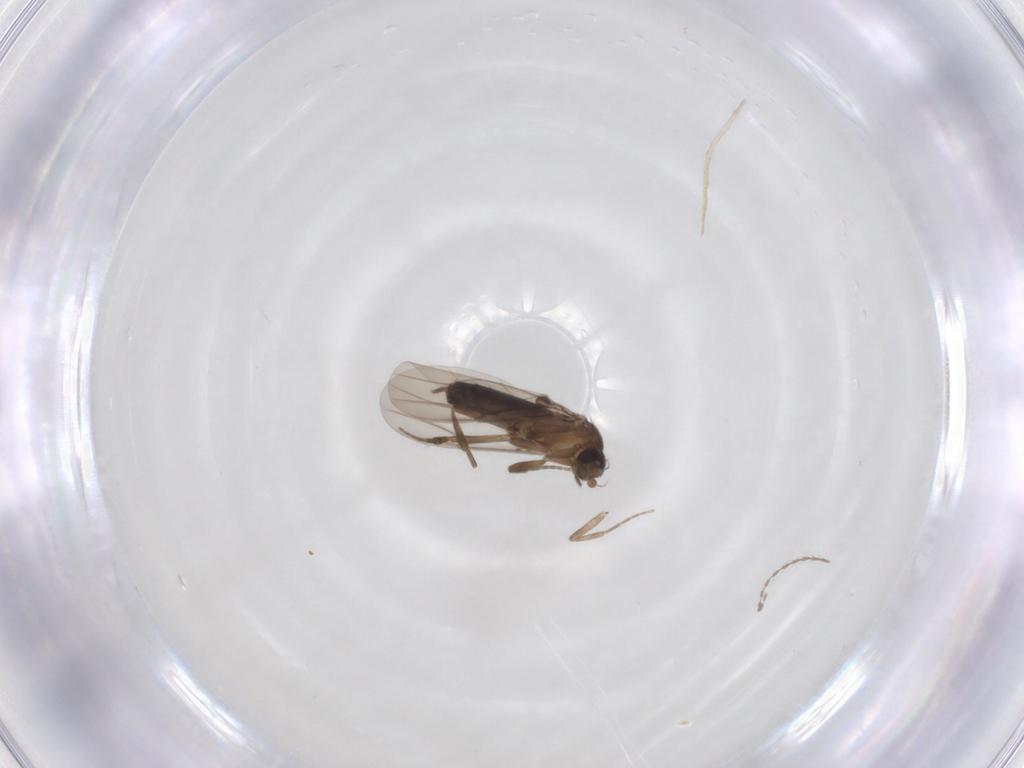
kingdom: Animalia
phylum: Arthropoda
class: Insecta
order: Diptera
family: Cecidomyiidae
